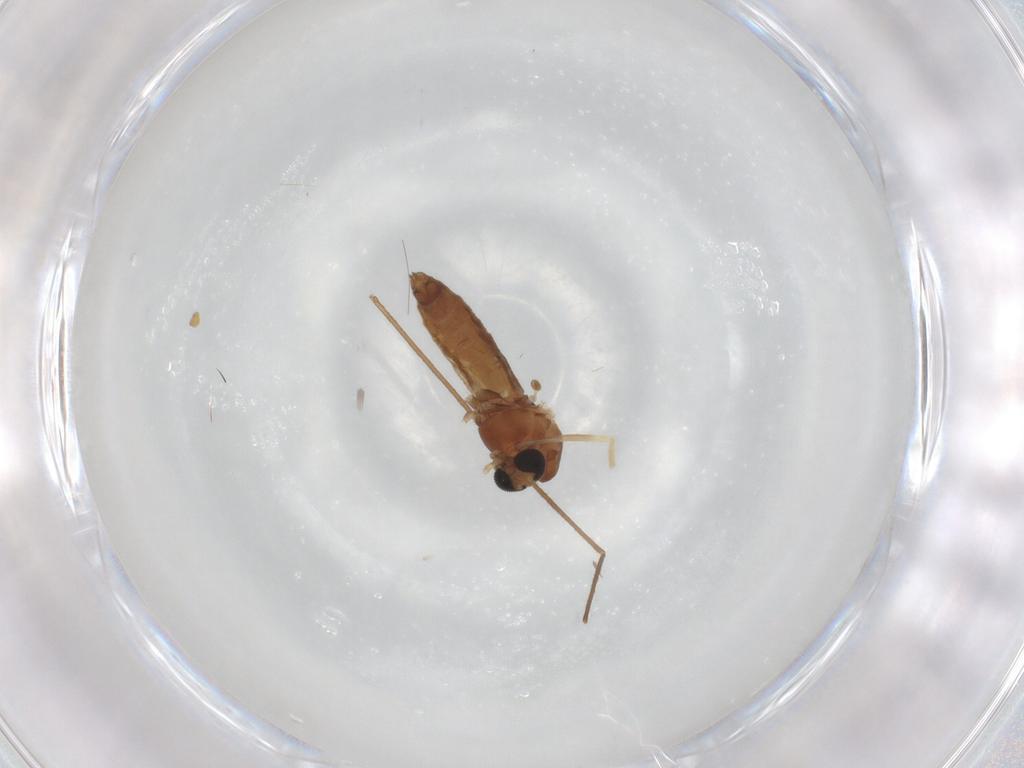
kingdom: Animalia
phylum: Arthropoda
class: Insecta
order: Diptera
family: Chironomidae
